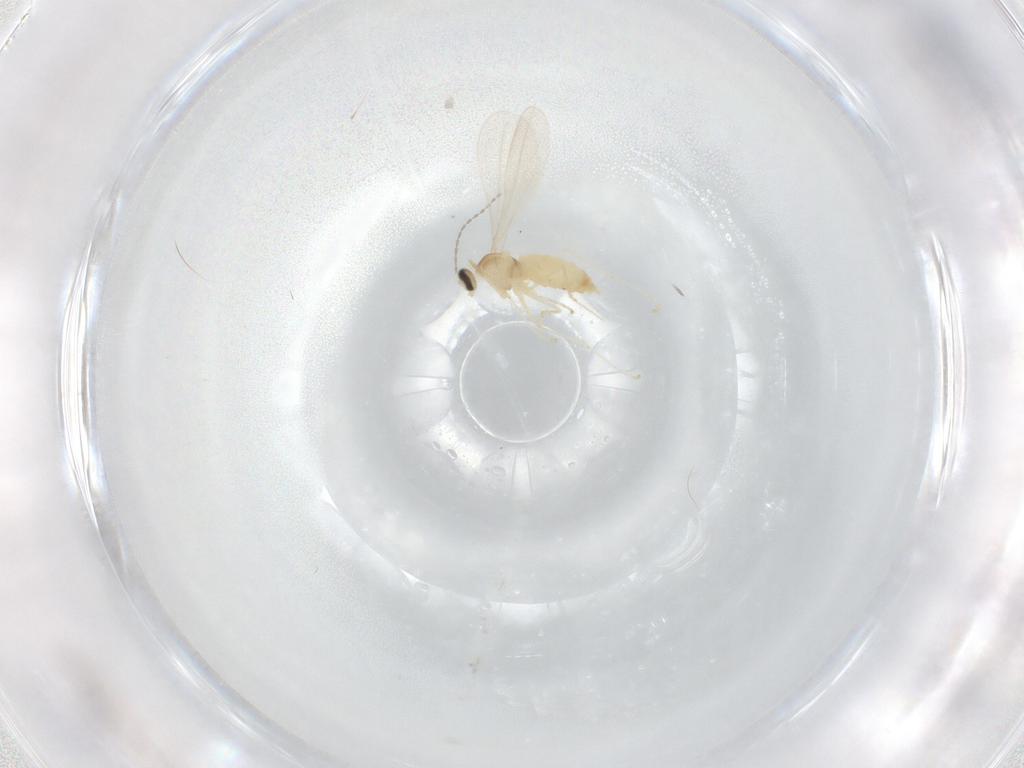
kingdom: Animalia
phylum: Arthropoda
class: Insecta
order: Diptera
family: Cecidomyiidae
